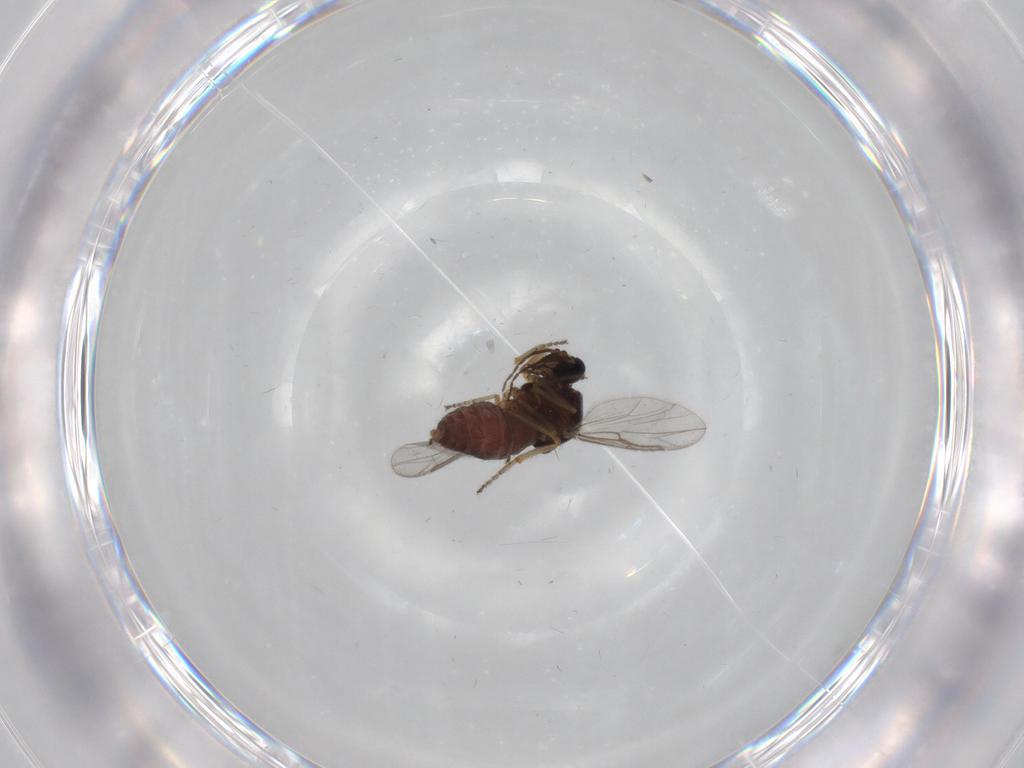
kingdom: Animalia
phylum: Arthropoda
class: Insecta
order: Diptera
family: Ceratopogonidae
